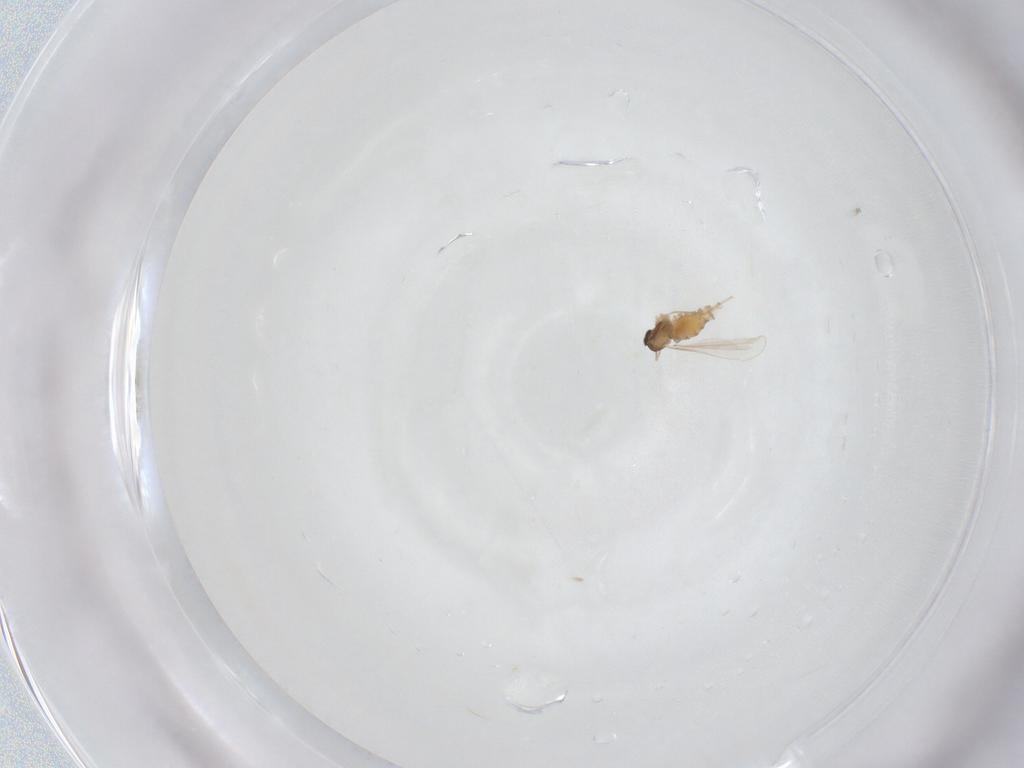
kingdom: Animalia
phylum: Arthropoda
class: Insecta
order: Diptera
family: Cecidomyiidae
